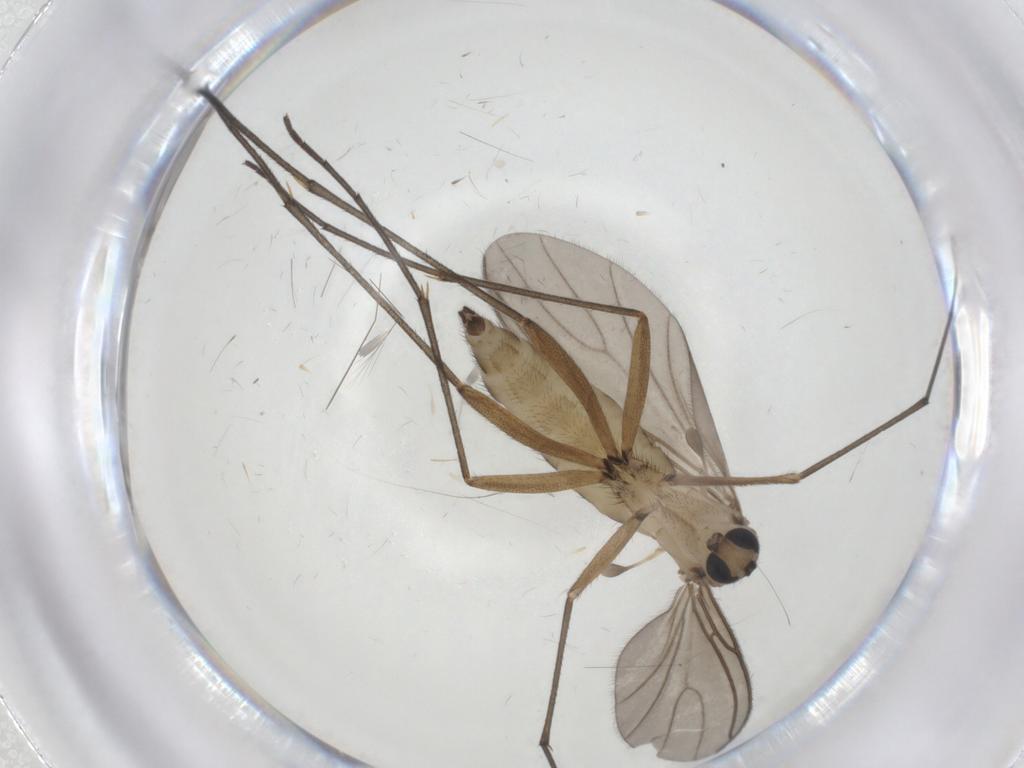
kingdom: Animalia
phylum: Arthropoda
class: Insecta
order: Diptera
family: Sciaridae
